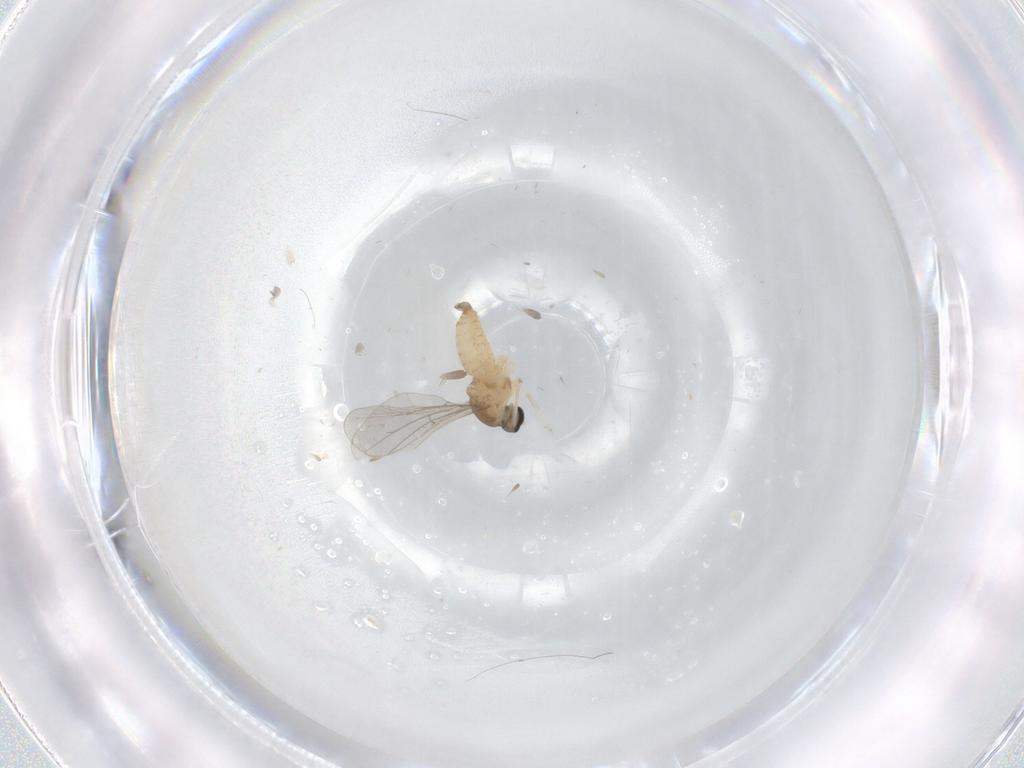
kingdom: Animalia
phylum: Arthropoda
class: Insecta
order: Diptera
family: Cecidomyiidae
